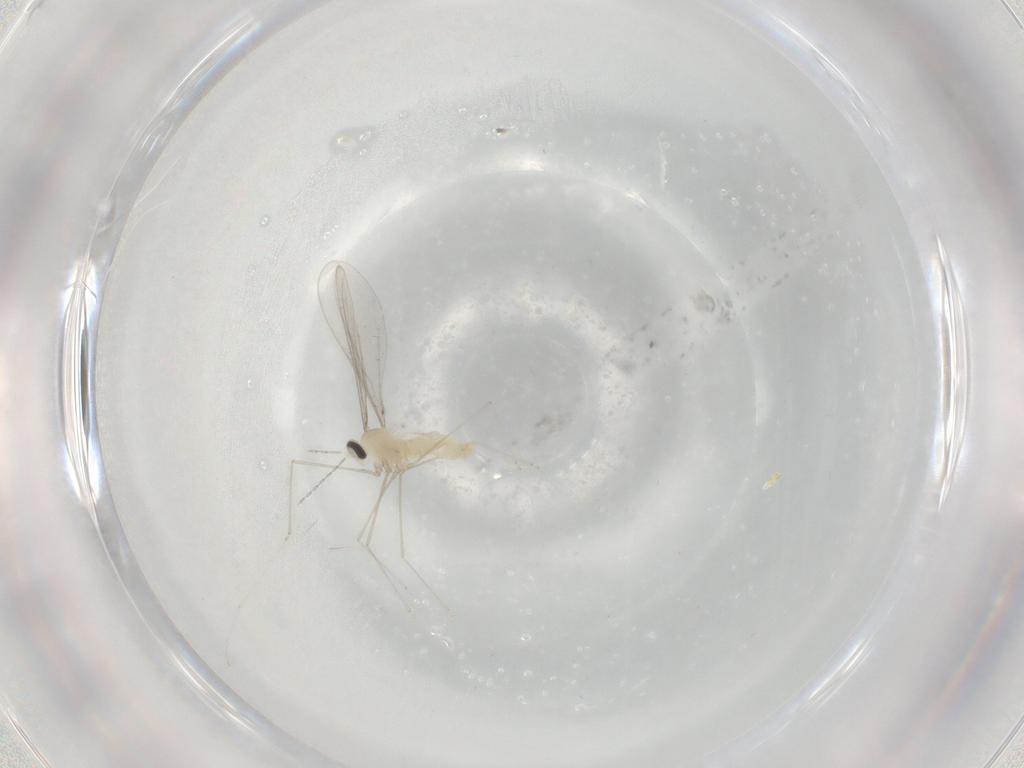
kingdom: Animalia
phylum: Arthropoda
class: Insecta
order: Diptera
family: Cecidomyiidae
